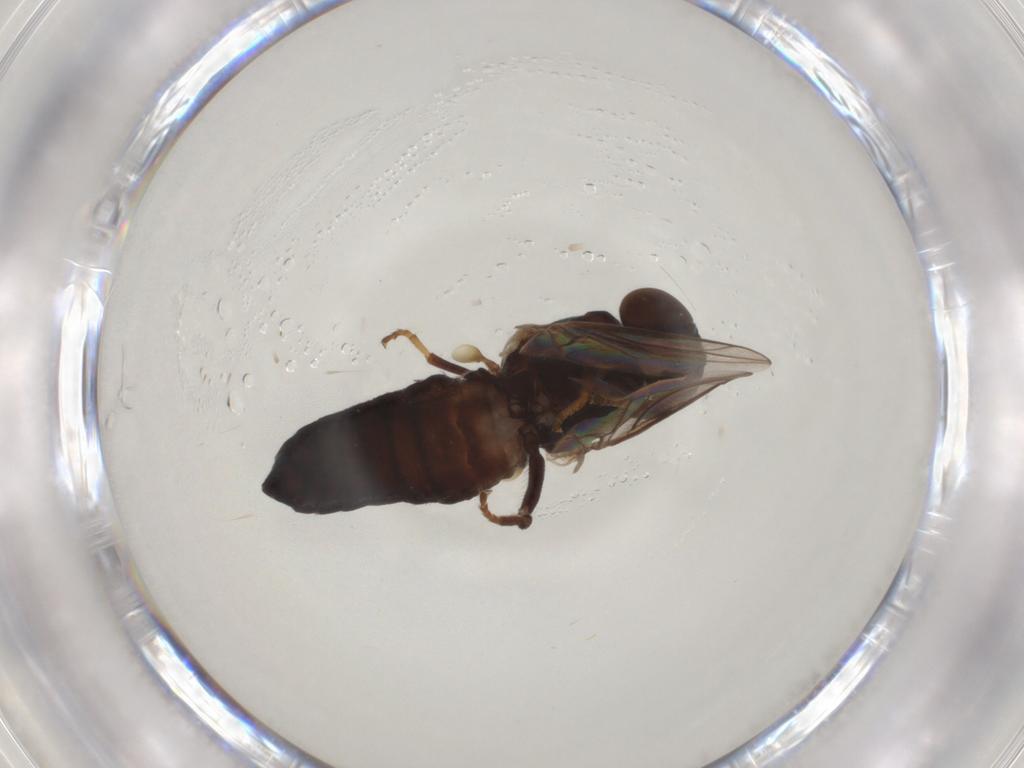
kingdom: Animalia
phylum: Arthropoda
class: Insecta
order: Diptera
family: Scenopinidae
